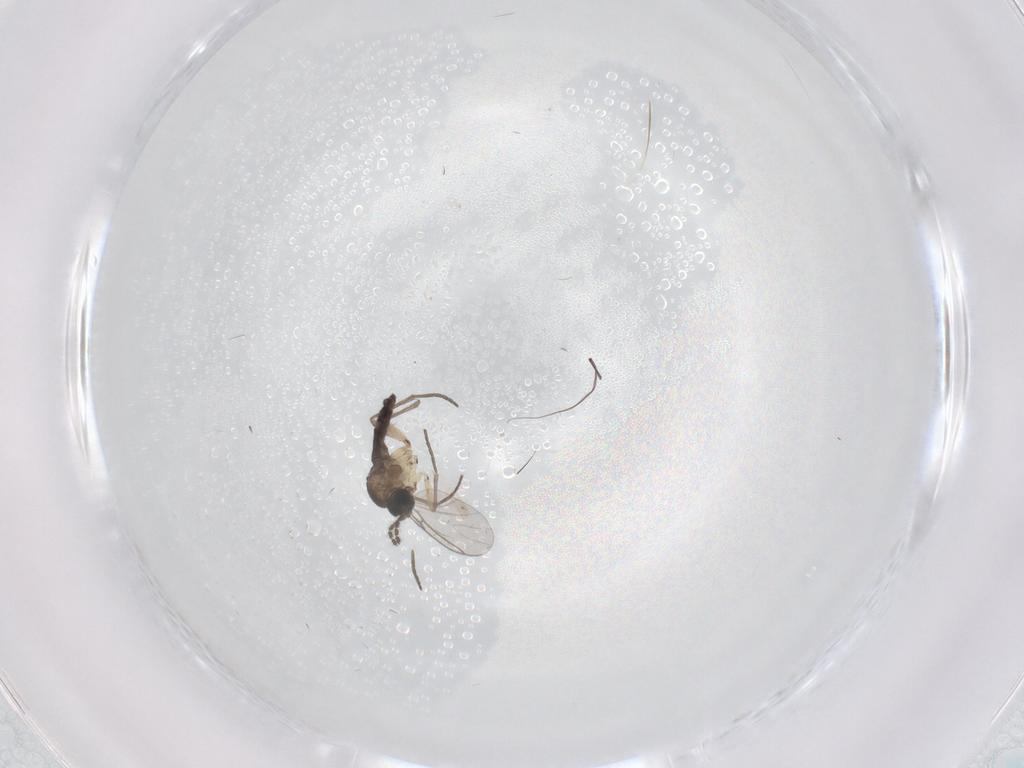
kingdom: Animalia
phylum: Arthropoda
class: Insecta
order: Diptera
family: Sciaridae
